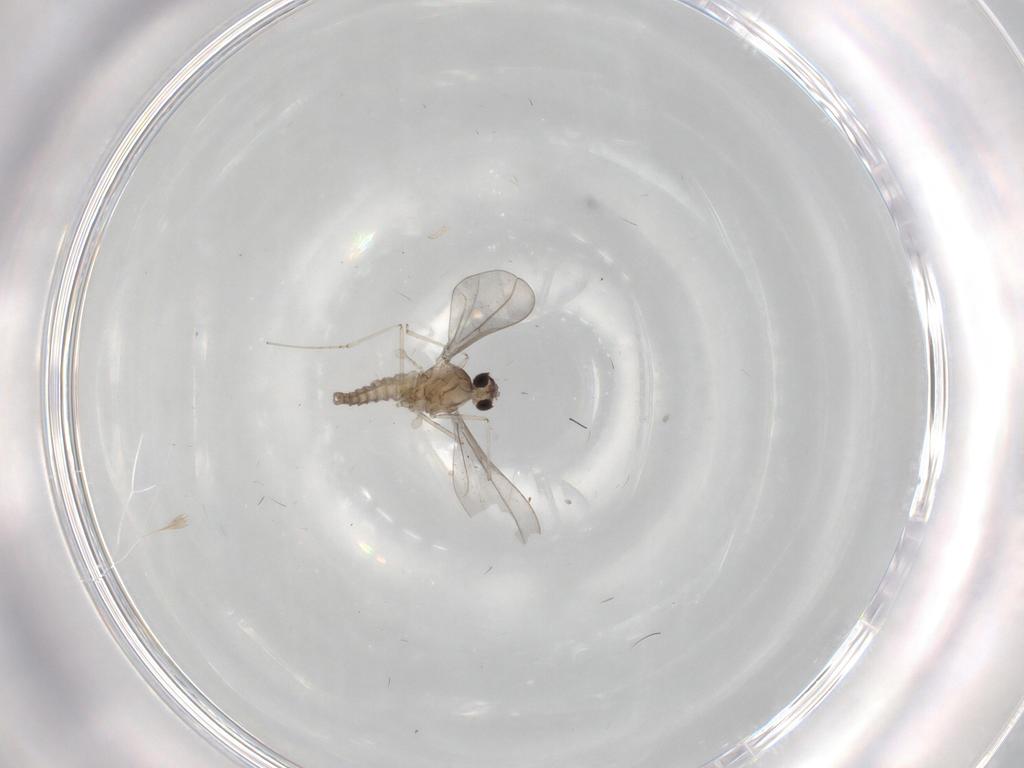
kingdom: Animalia
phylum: Arthropoda
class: Insecta
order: Diptera
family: Cecidomyiidae
